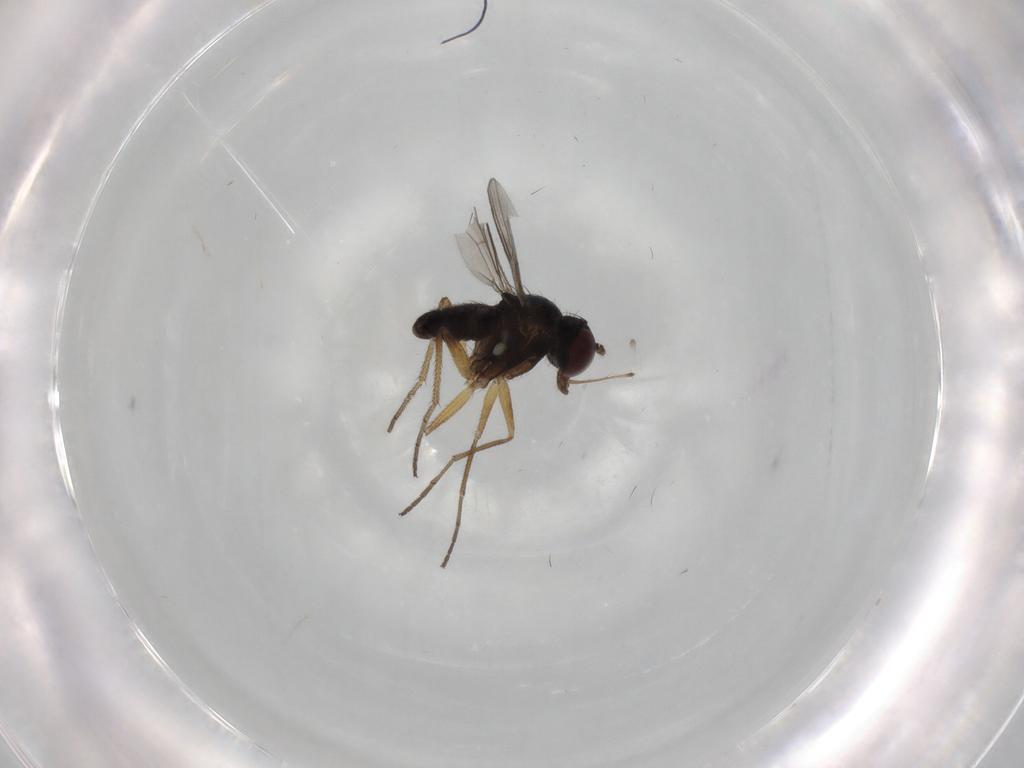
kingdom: Animalia
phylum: Arthropoda
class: Insecta
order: Diptera
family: Dolichopodidae
